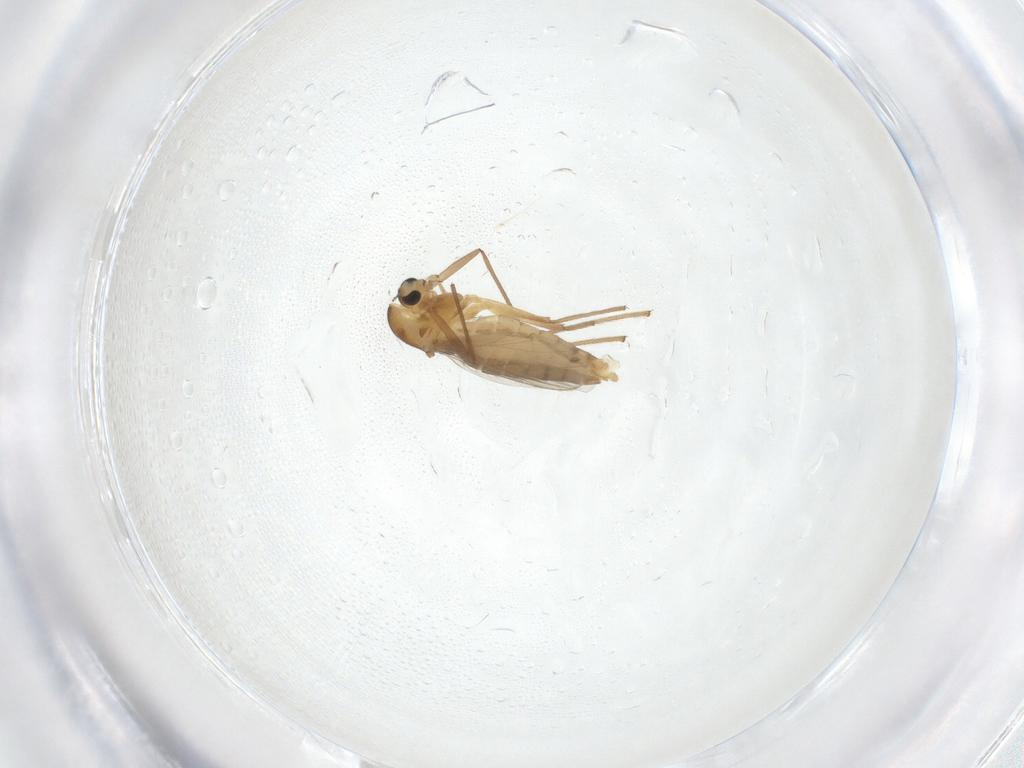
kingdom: Animalia
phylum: Arthropoda
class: Insecta
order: Diptera
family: Chironomidae
